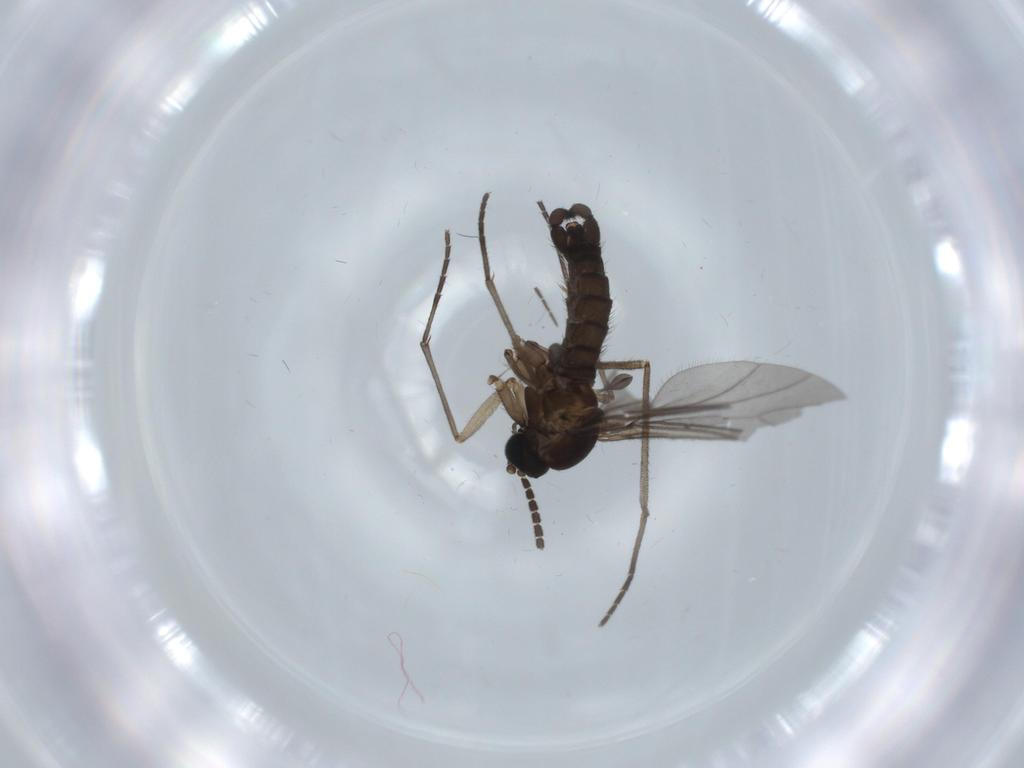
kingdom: Animalia
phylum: Arthropoda
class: Insecta
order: Diptera
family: Sciaridae
